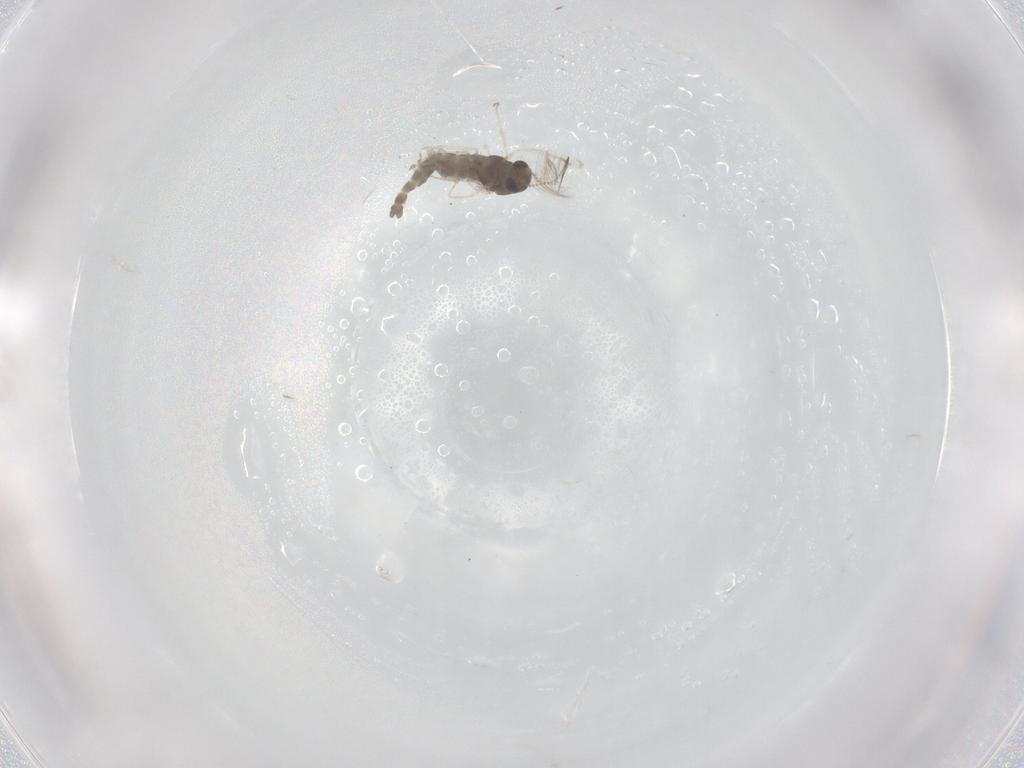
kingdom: Animalia
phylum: Arthropoda
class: Insecta
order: Diptera
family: Chironomidae
